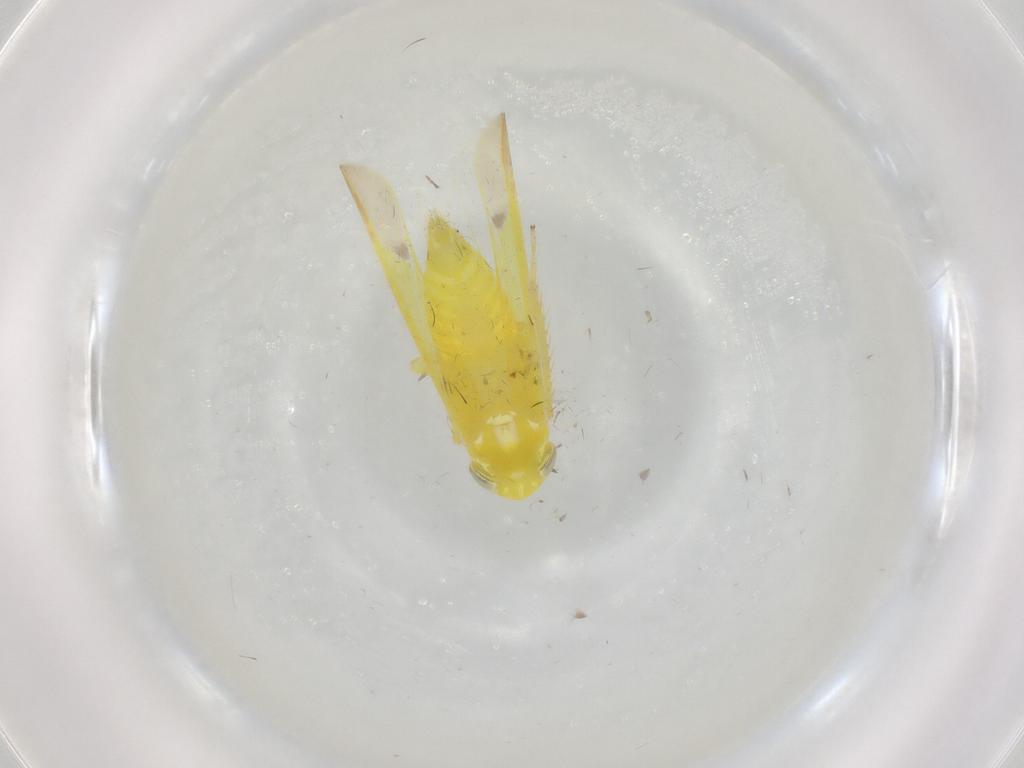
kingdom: Animalia
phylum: Arthropoda
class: Insecta
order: Hemiptera
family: Cicadellidae
